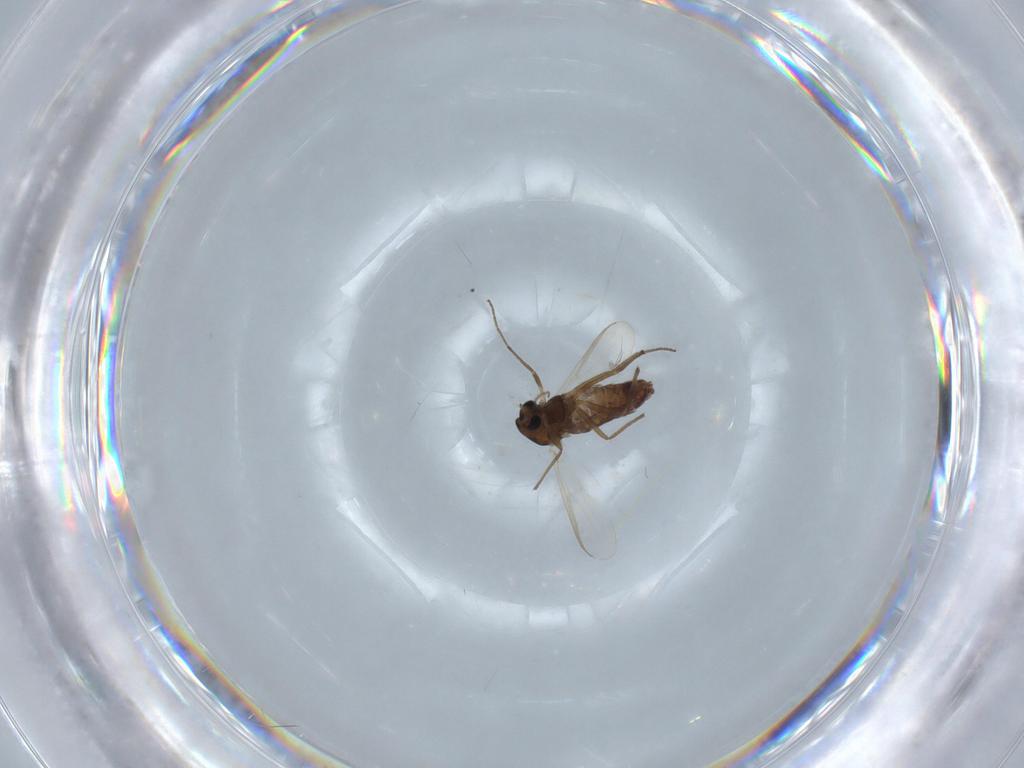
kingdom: Animalia
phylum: Arthropoda
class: Insecta
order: Diptera
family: Chironomidae
